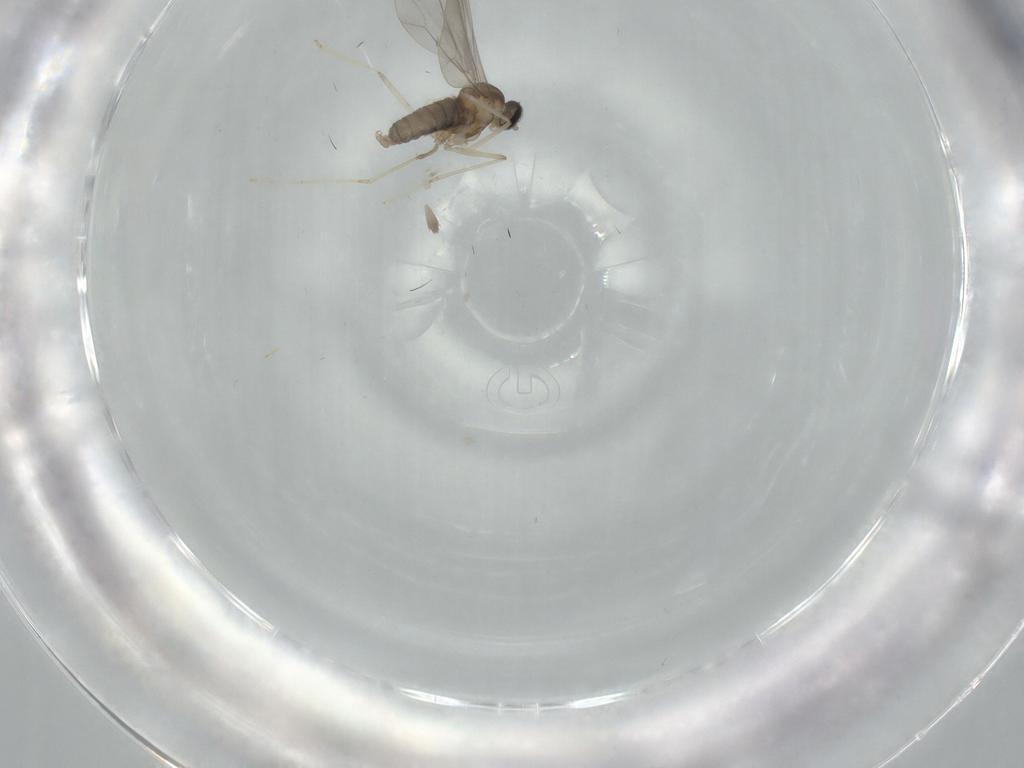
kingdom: Animalia
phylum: Arthropoda
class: Insecta
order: Diptera
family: Cecidomyiidae
